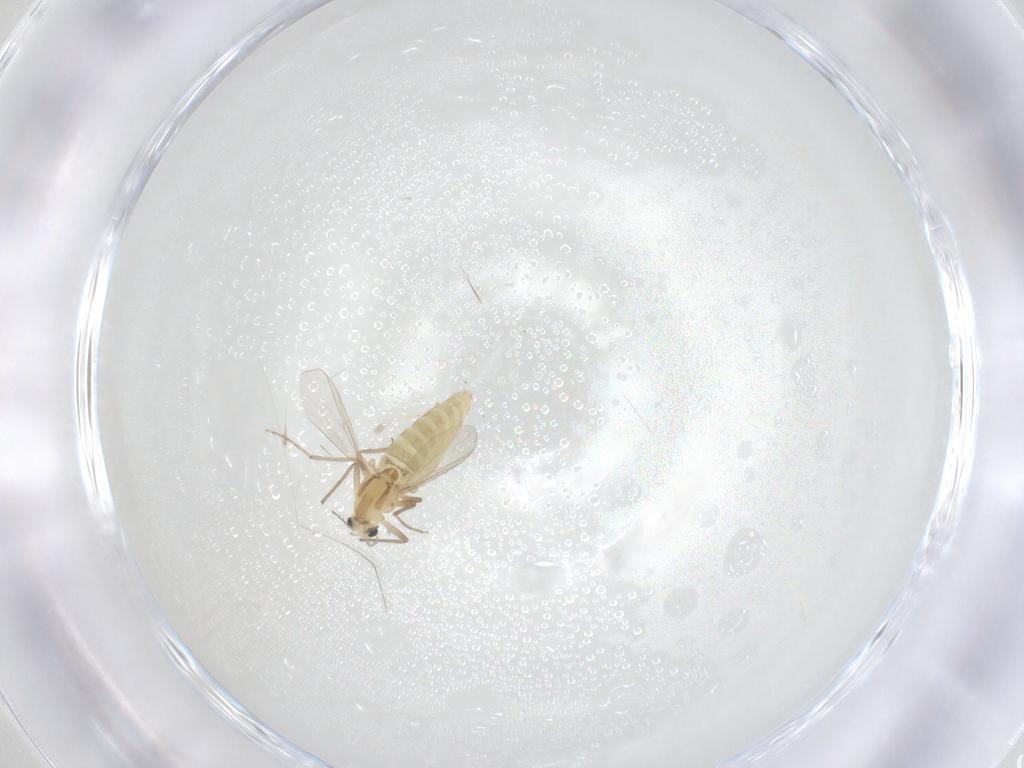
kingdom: Animalia
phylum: Arthropoda
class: Insecta
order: Diptera
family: Chironomidae
